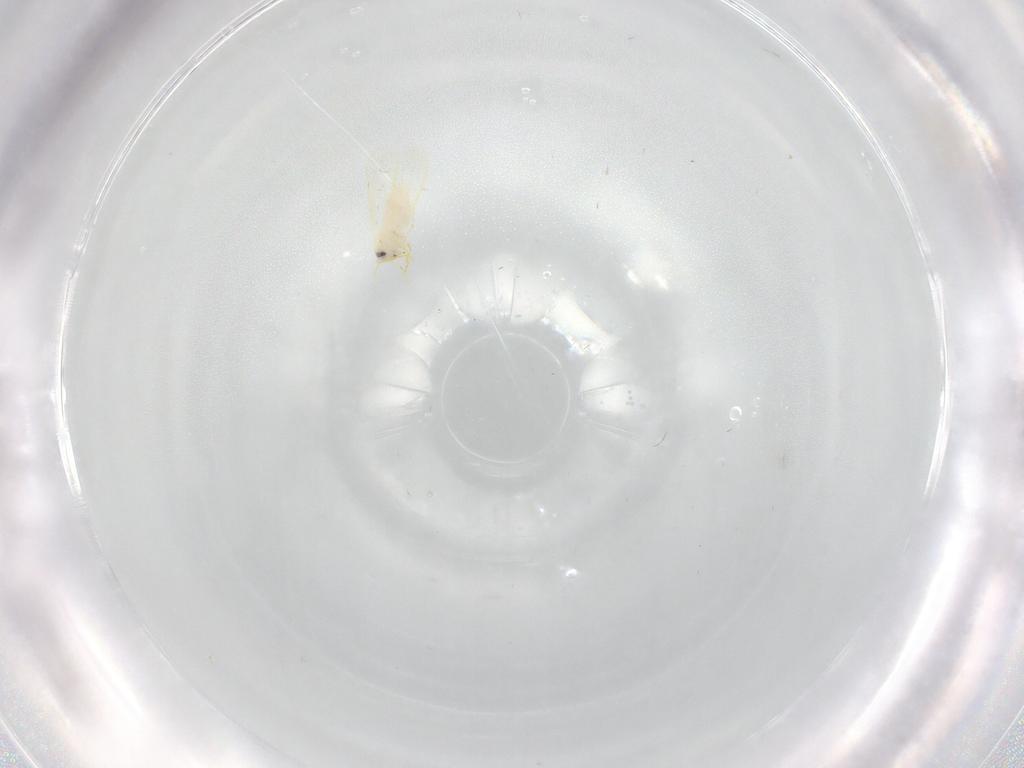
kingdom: Animalia
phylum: Arthropoda
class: Insecta
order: Hemiptera
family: Aleyrodidae
